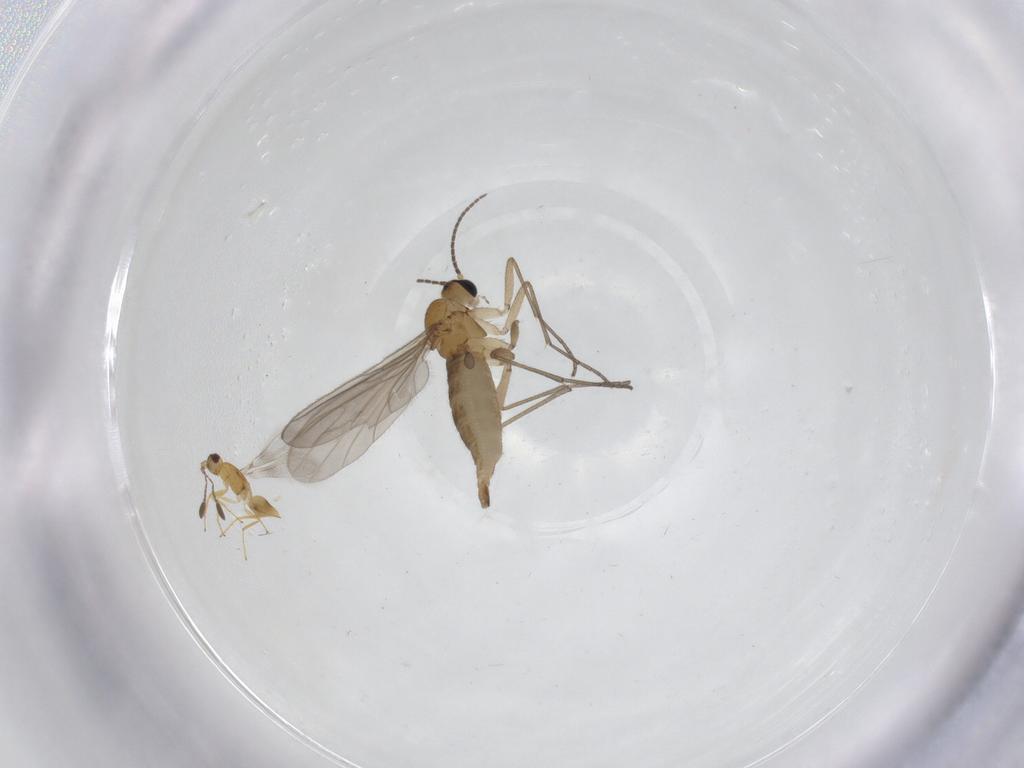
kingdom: Animalia
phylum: Arthropoda
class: Insecta
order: Diptera
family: Sciaridae
